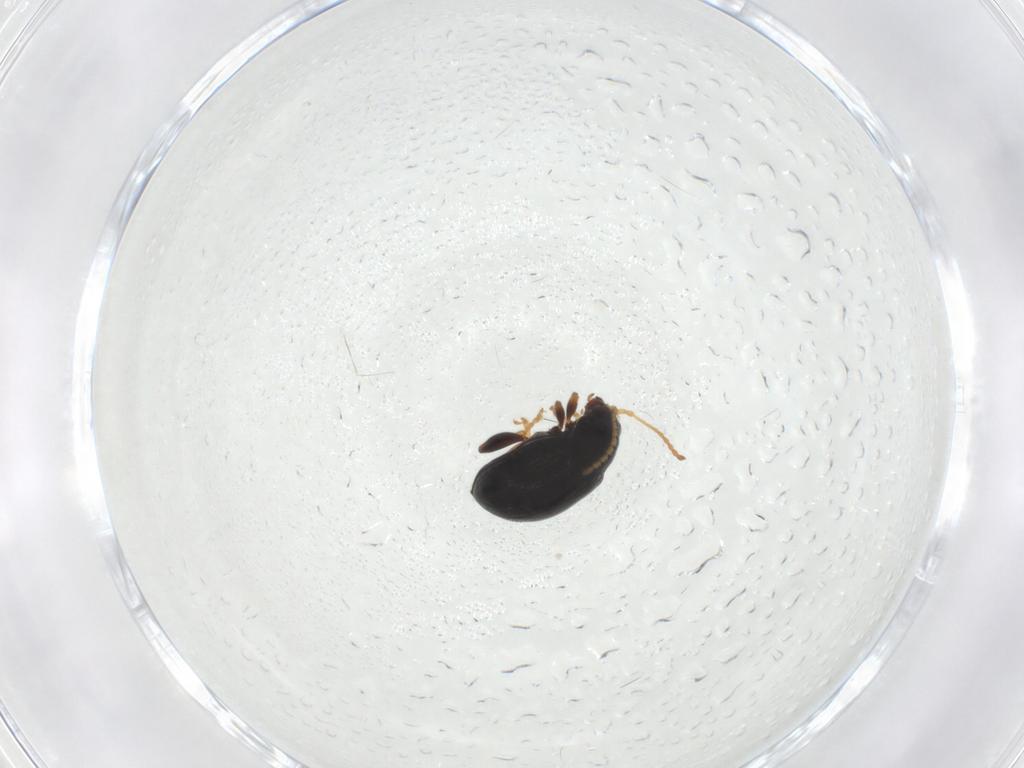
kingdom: Animalia
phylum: Arthropoda
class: Insecta
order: Coleoptera
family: Chrysomelidae
